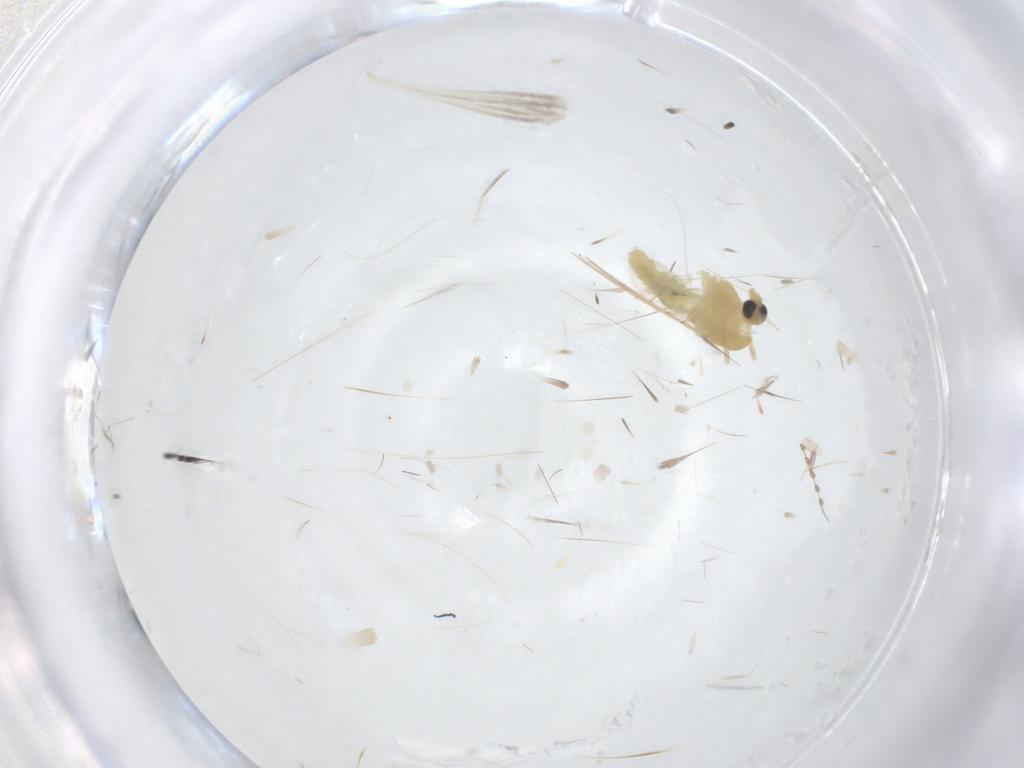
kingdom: Animalia
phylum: Arthropoda
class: Insecta
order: Diptera
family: Chironomidae
